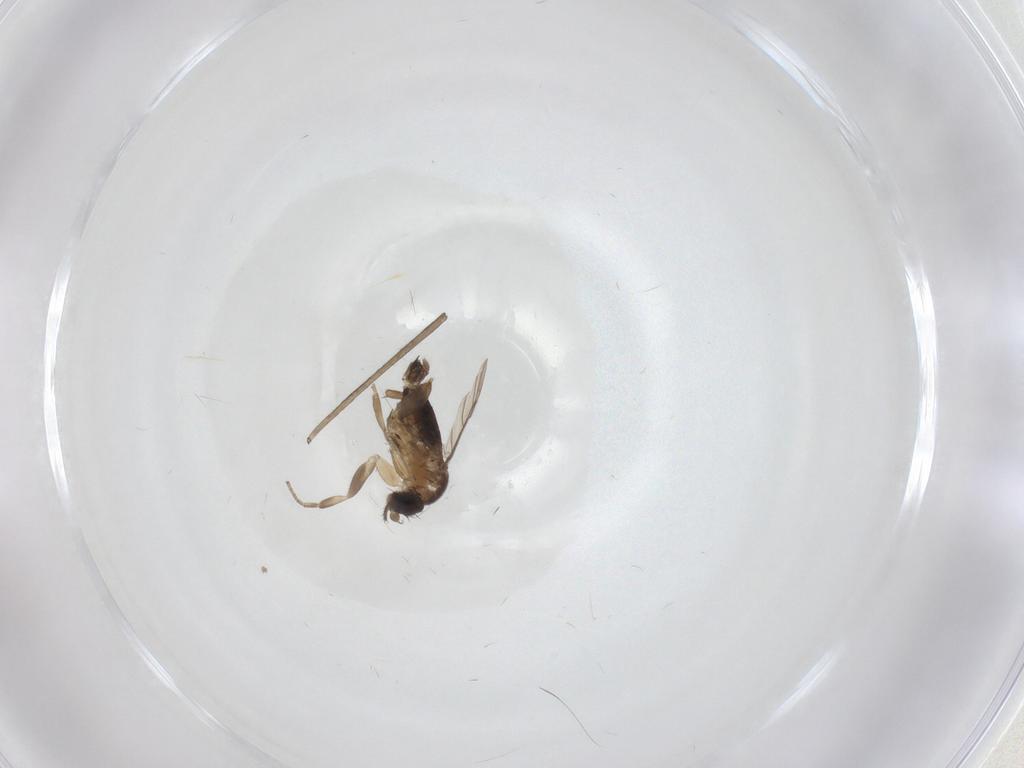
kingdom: Animalia
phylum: Arthropoda
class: Insecta
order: Diptera
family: Phoridae
